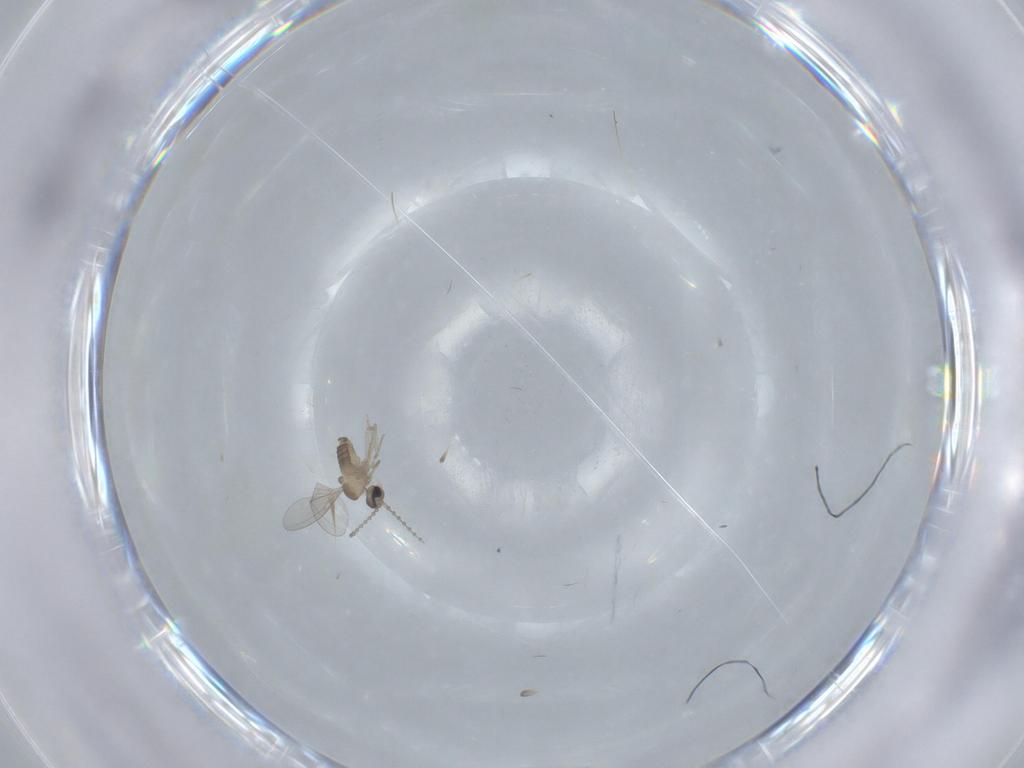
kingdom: Animalia
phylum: Arthropoda
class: Insecta
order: Diptera
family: Cecidomyiidae
